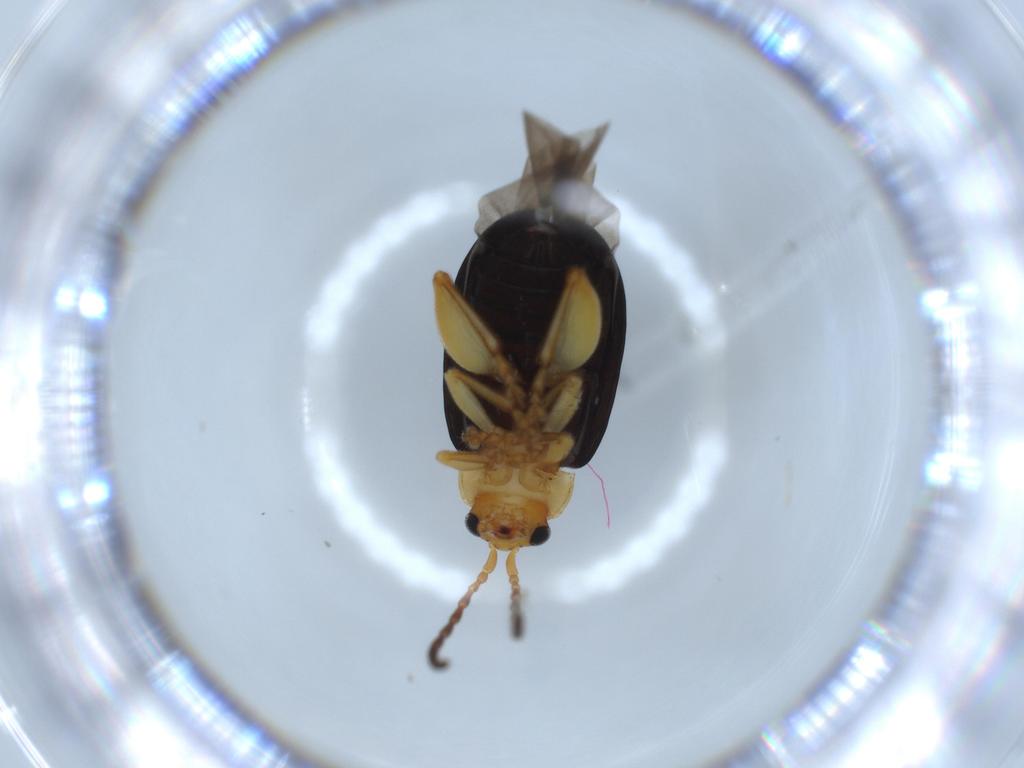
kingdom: Animalia
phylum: Arthropoda
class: Insecta
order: Coleoptera
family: Chrysomelidae
